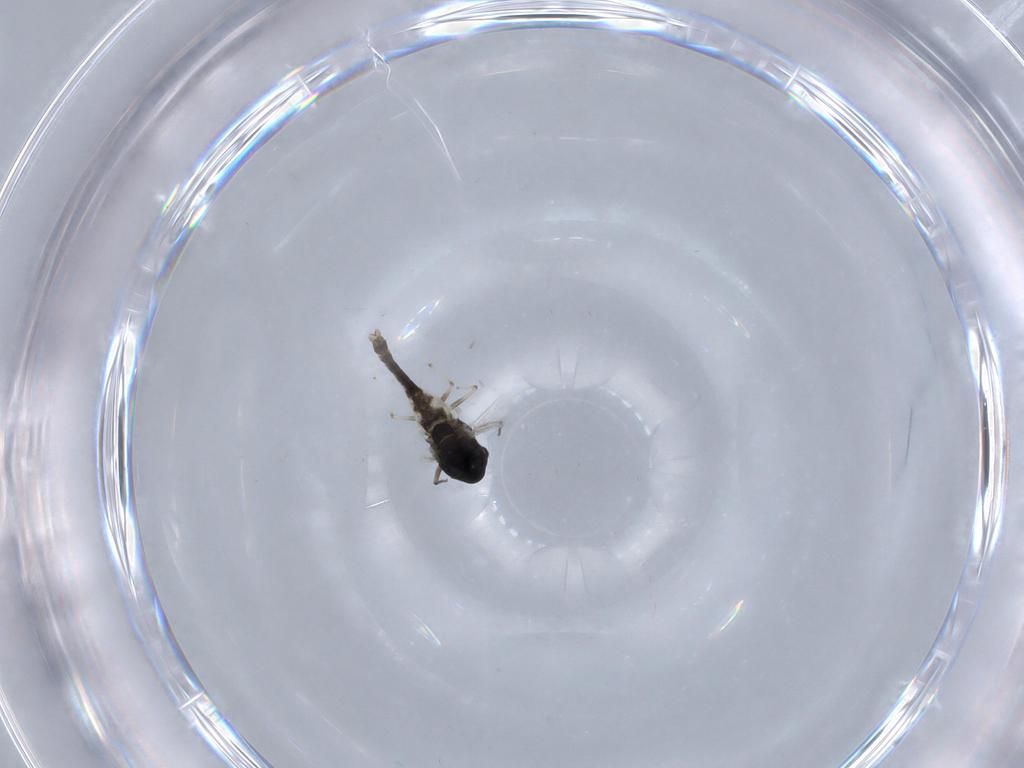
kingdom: Animalia
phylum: Arthropoda
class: Insecta
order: Diptera
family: Chironomidae
